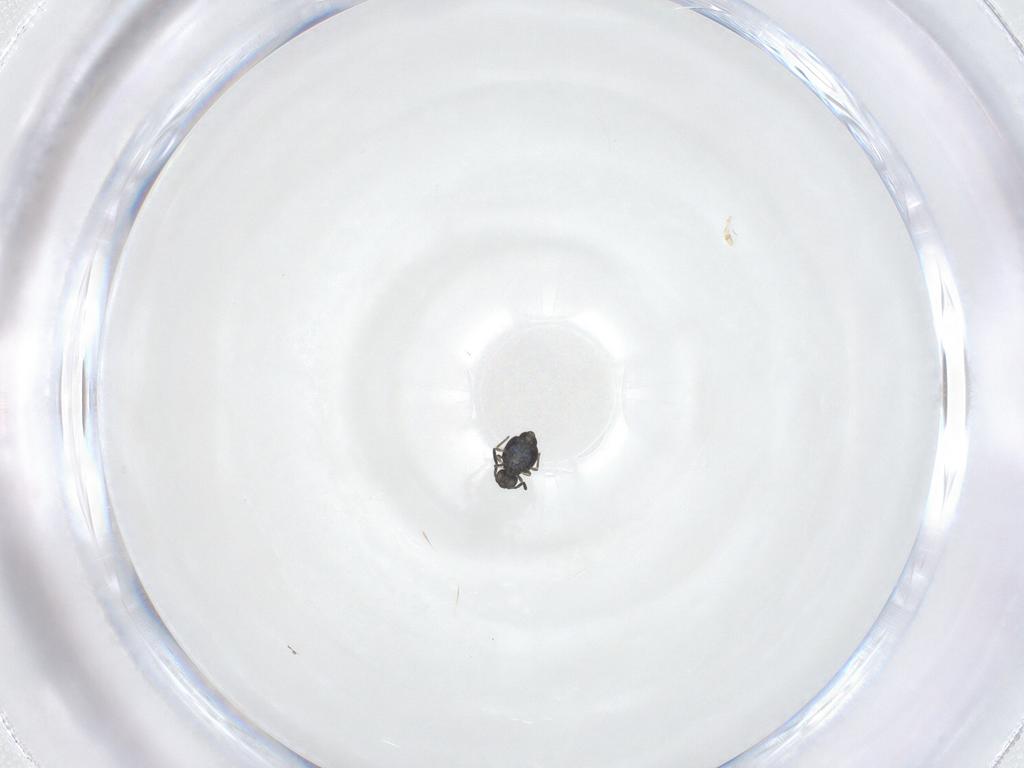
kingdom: Animalia
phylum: Arthropoda
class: Collembola
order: Symphypleona
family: Katiannidae
